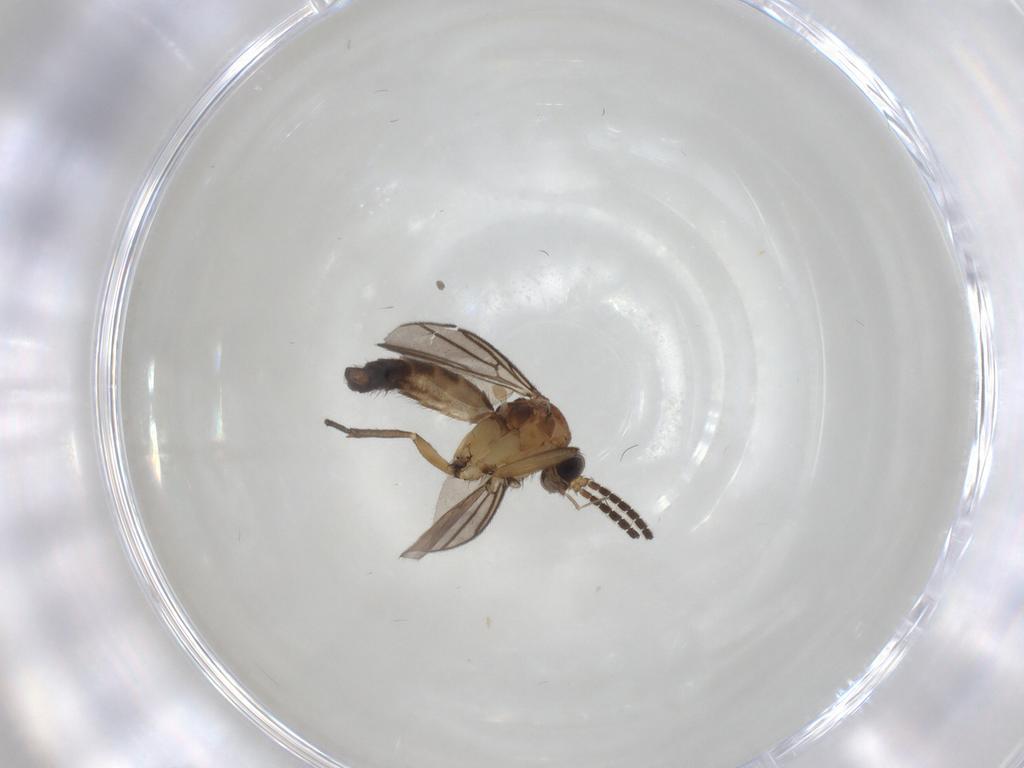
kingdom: Animalia
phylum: Arthropoda
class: Insecta
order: Diptera
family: Mycetophilidae
